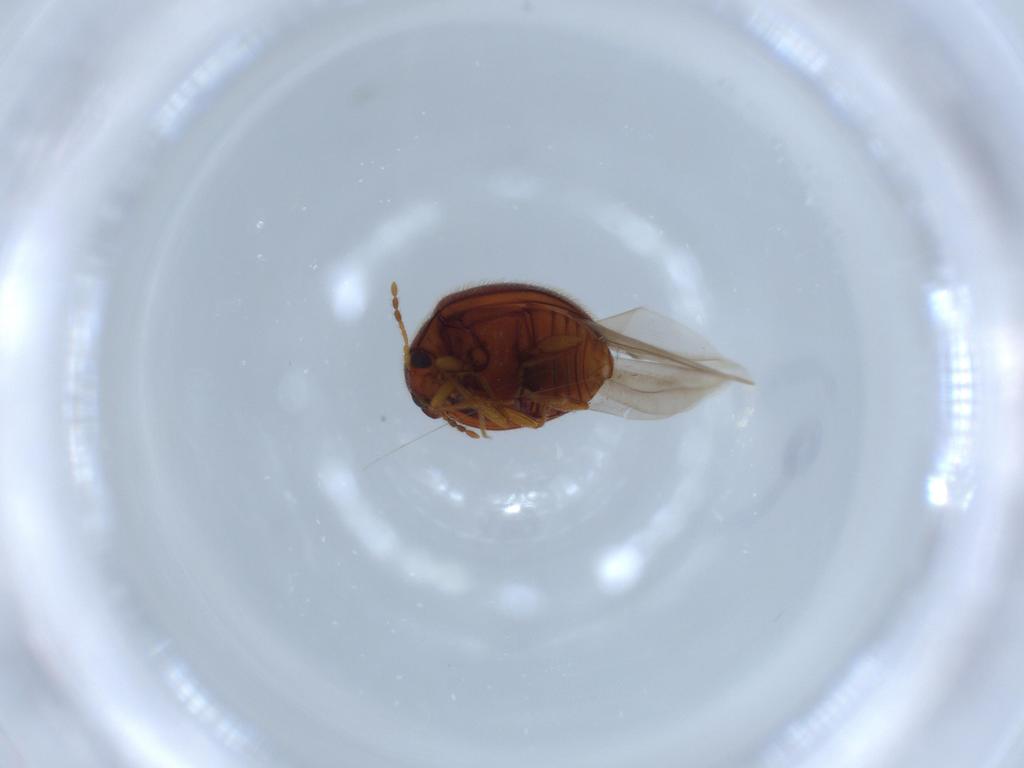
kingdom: Animalia
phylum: Arthropoda
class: Insecta
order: Coleoptera
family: Anamorphidae
